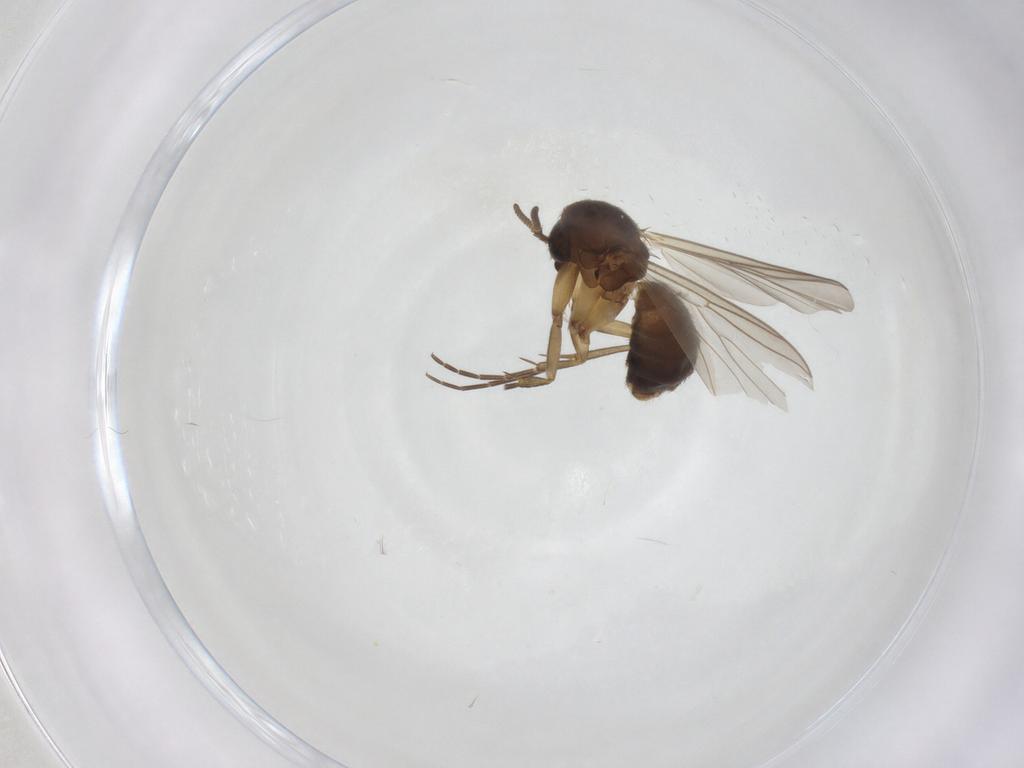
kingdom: Animalia
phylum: Arthropoda
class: Insecta
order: Diptera
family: Mycetophilidae
